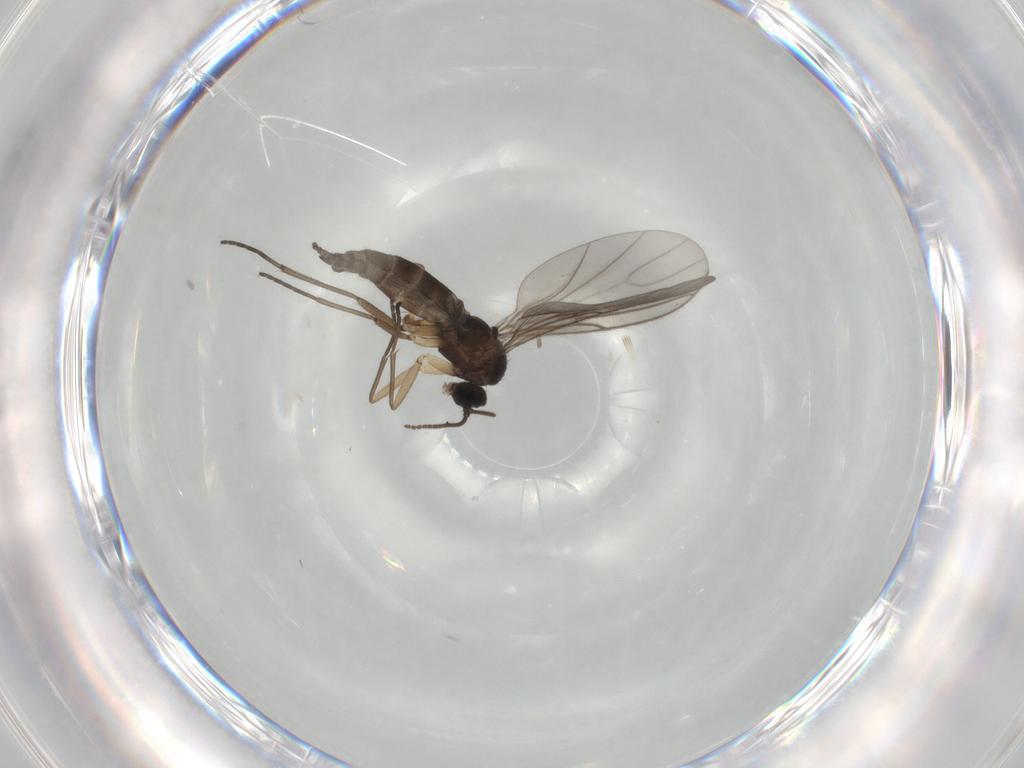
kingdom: Animalia
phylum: Arthropoda
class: Insecta
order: Diptera
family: Sciaridae
